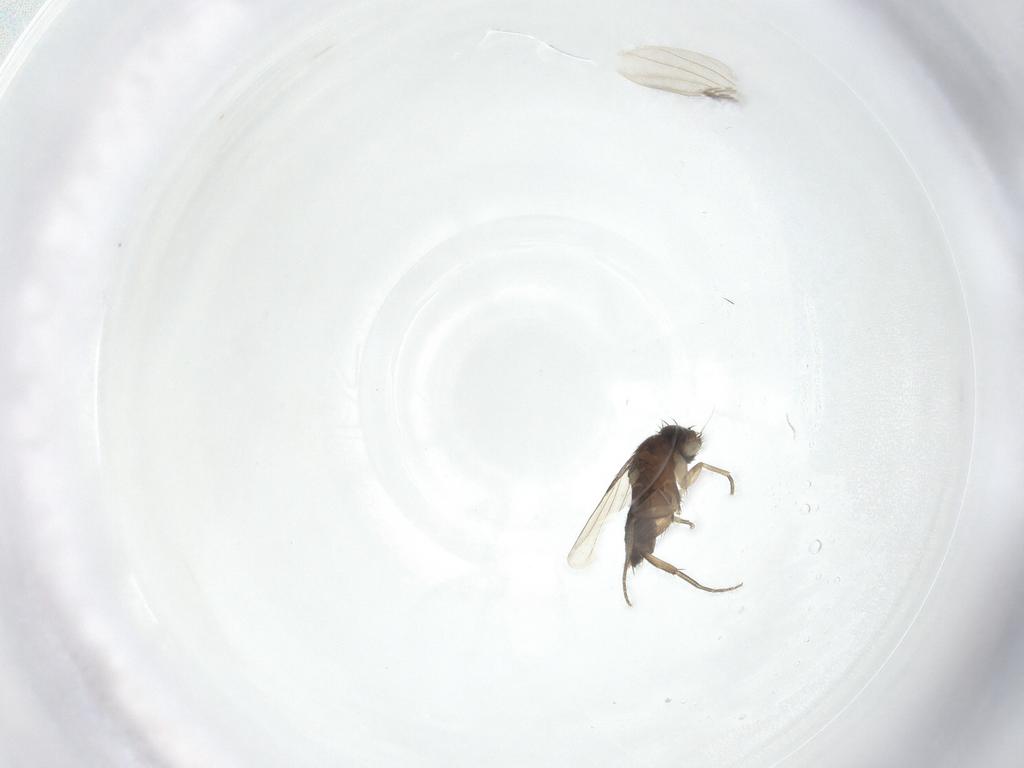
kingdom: Animalia
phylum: Arthropoda
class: Insecta
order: Diptera
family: Phoridae
